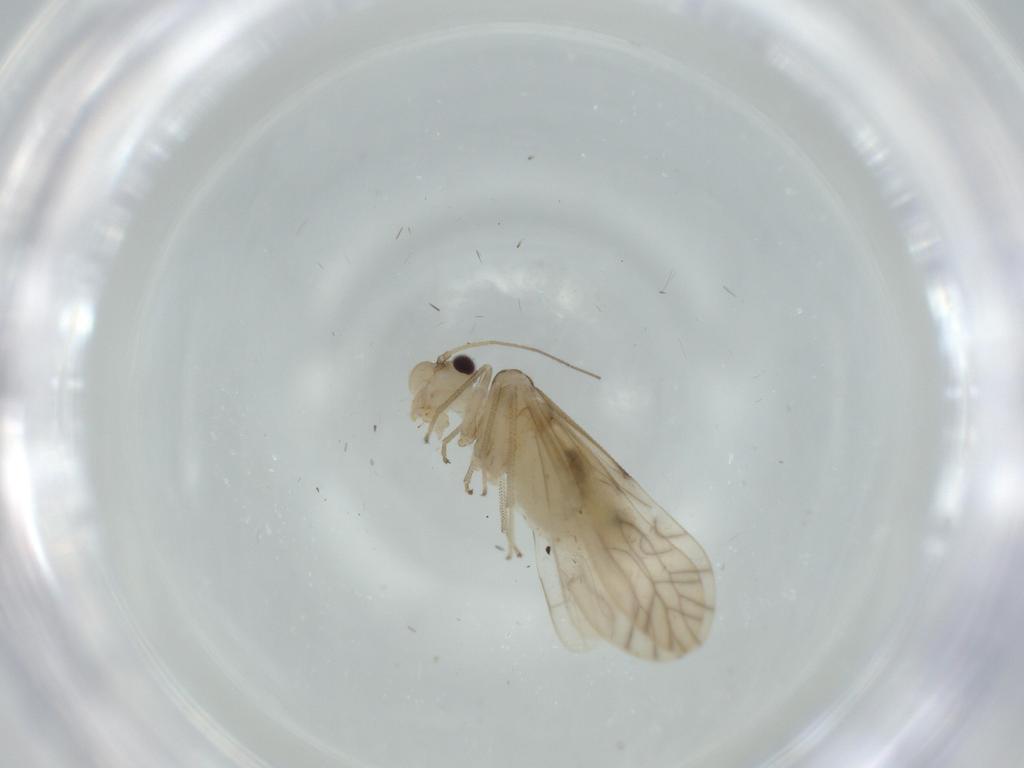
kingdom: Animalia
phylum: Arthropoda
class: Insecta
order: Psocodea
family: Caeciliusidae
